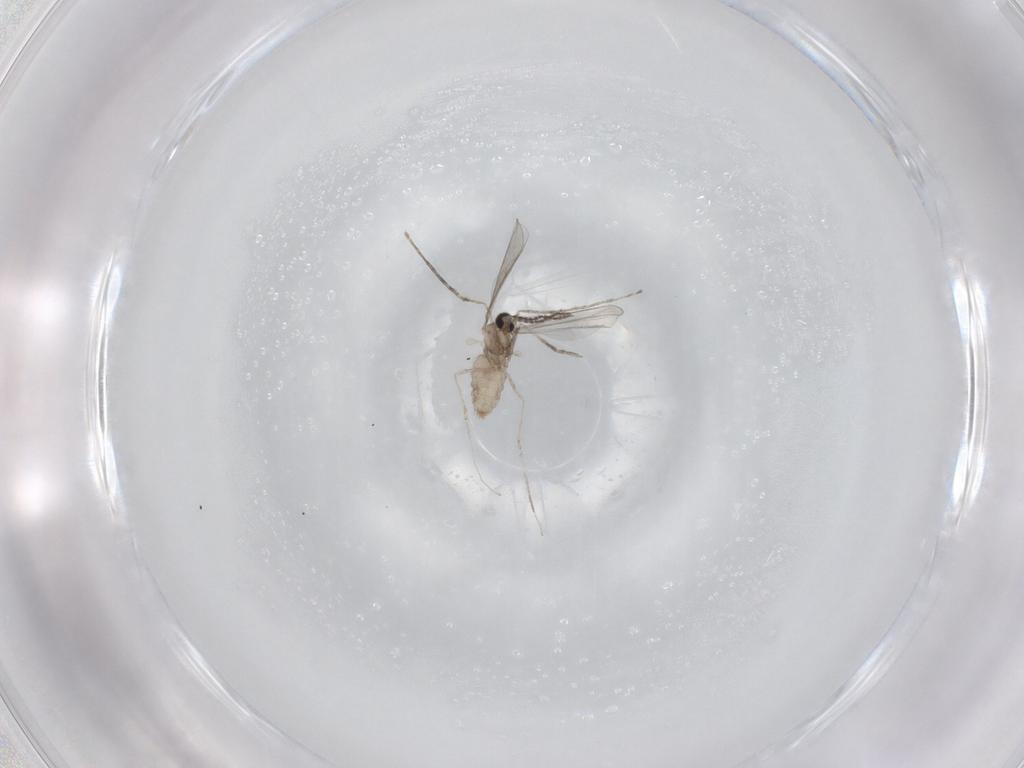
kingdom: Animalia
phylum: Arthropoda
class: Insecta
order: Diptera
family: Cecidomyiidae
